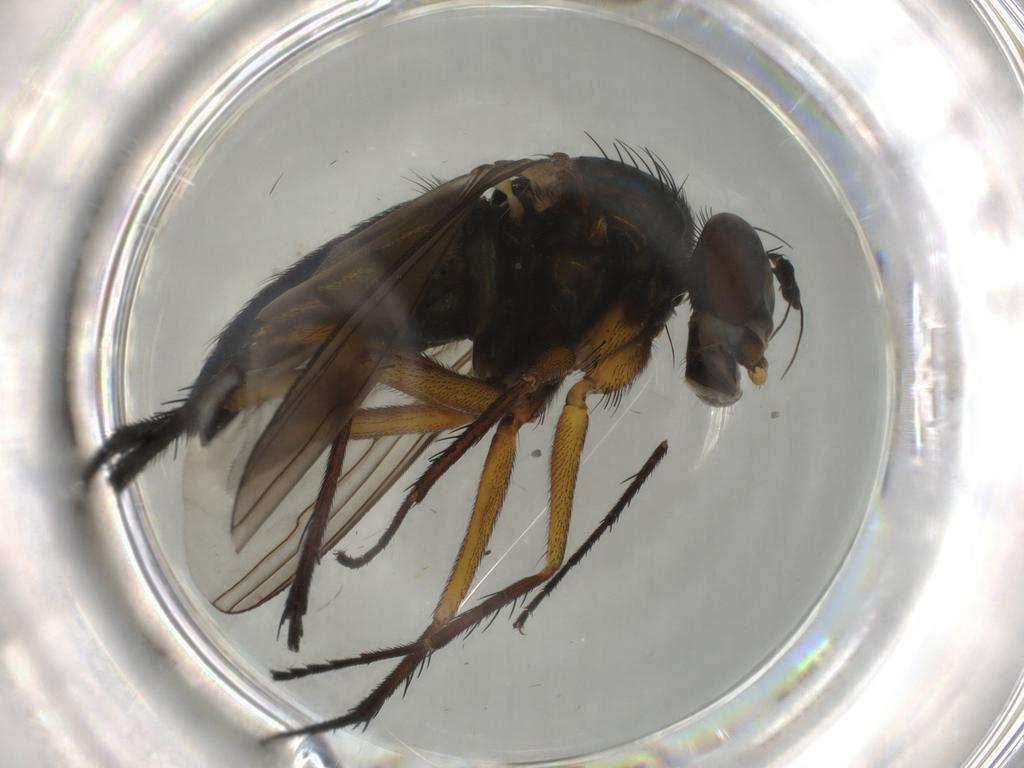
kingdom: Animalia
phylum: Arthropoda
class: Insecta
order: Diptera
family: Dolichopodidae
